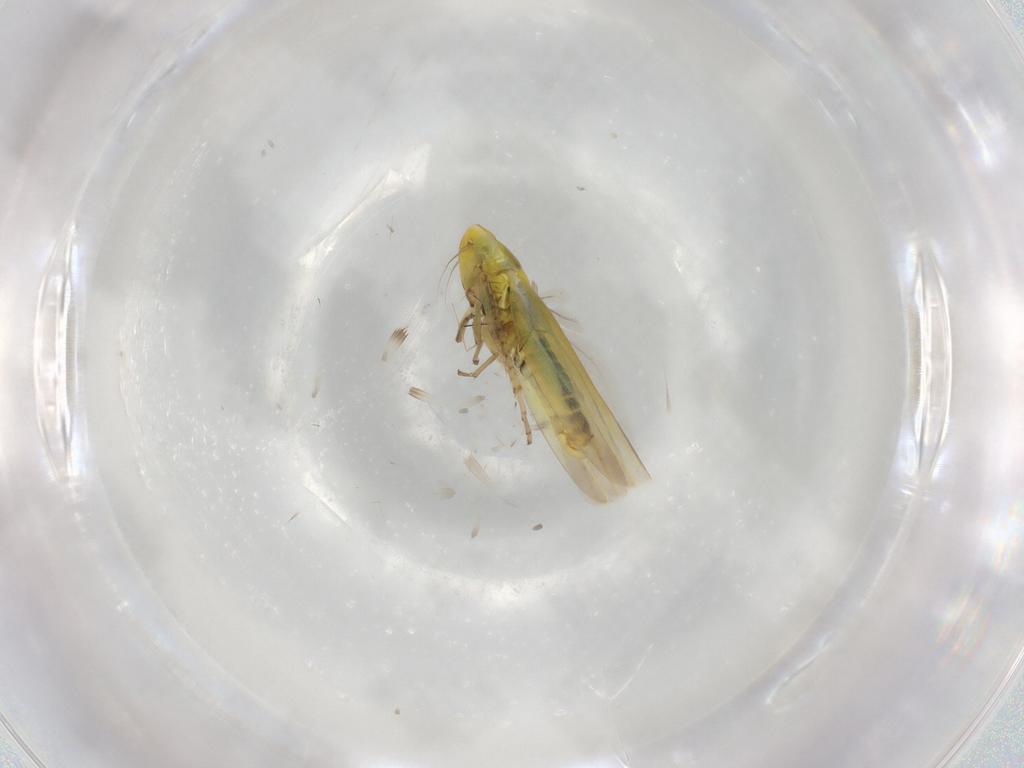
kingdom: Animalia
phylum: Arthropoda
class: Insecta
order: Hemiptera
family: Cicadellidae
